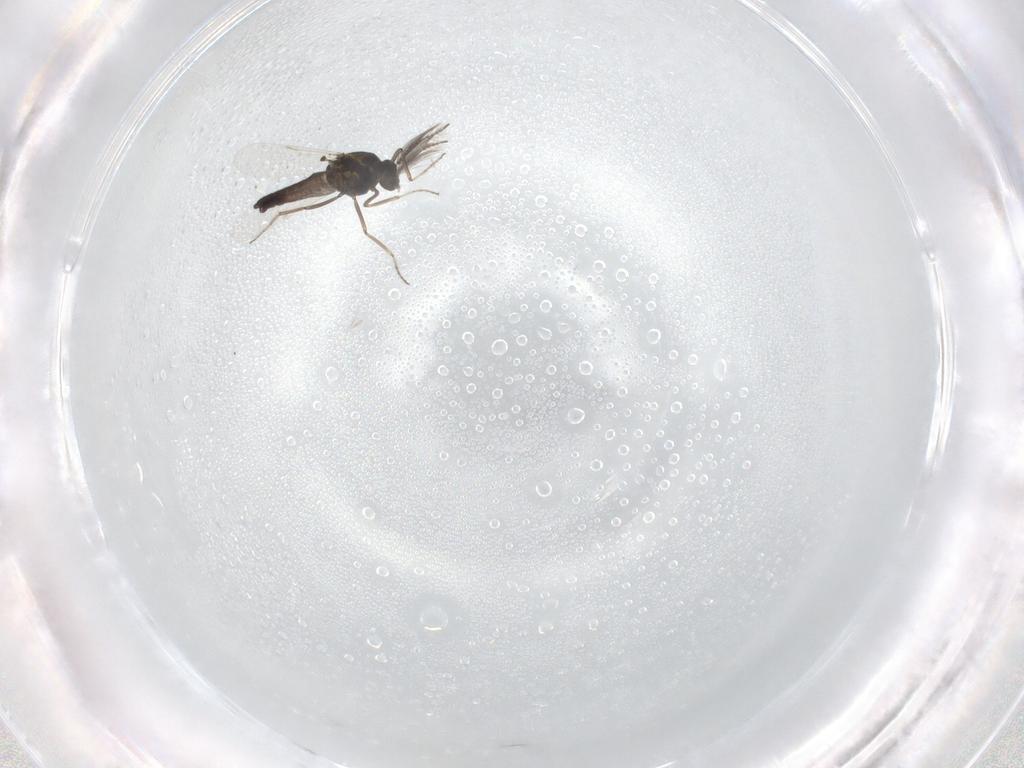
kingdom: Animalia
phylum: Arthropoda
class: Insecta
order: Diptera
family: Ceratopogonidae
